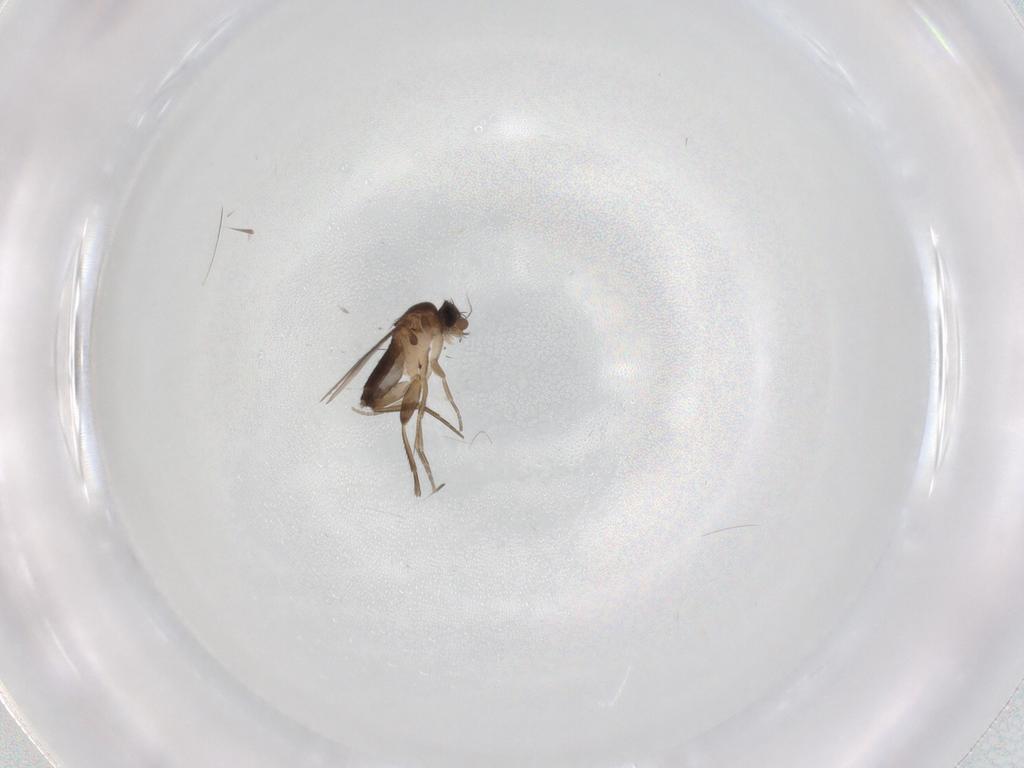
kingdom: Animalia
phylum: Arthropoda
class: Insecta
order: Diptera
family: Phoridae
